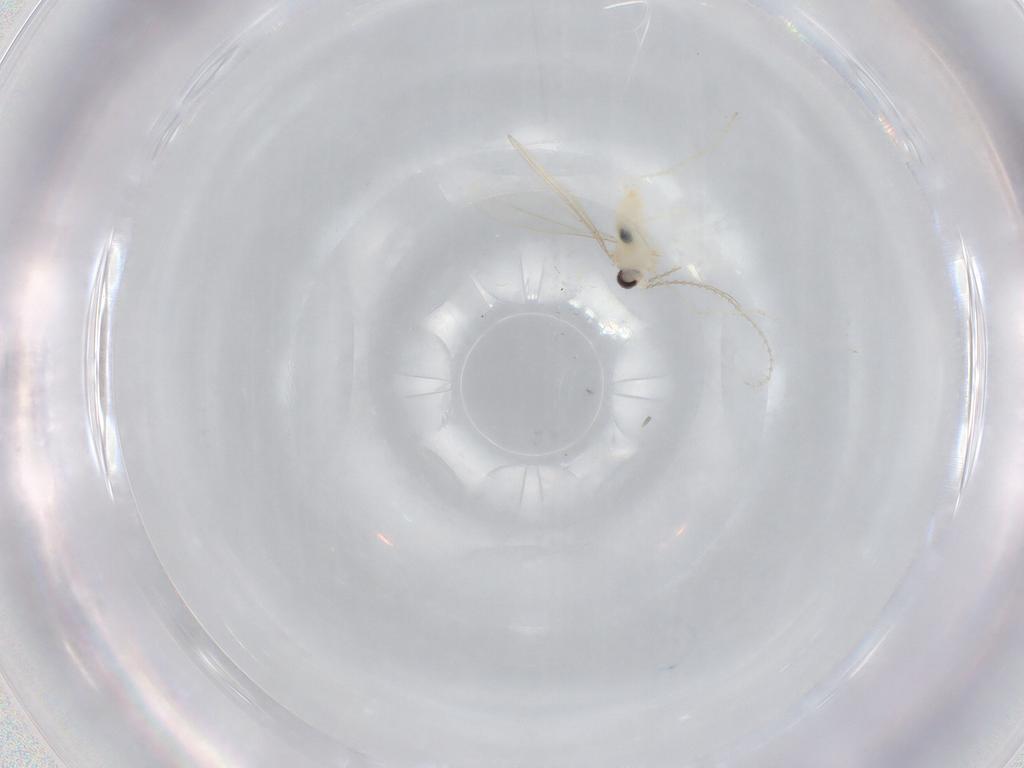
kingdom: Animalia
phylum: Arthropoda
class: Insecta
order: Diptera
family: Cecidomyiidae
